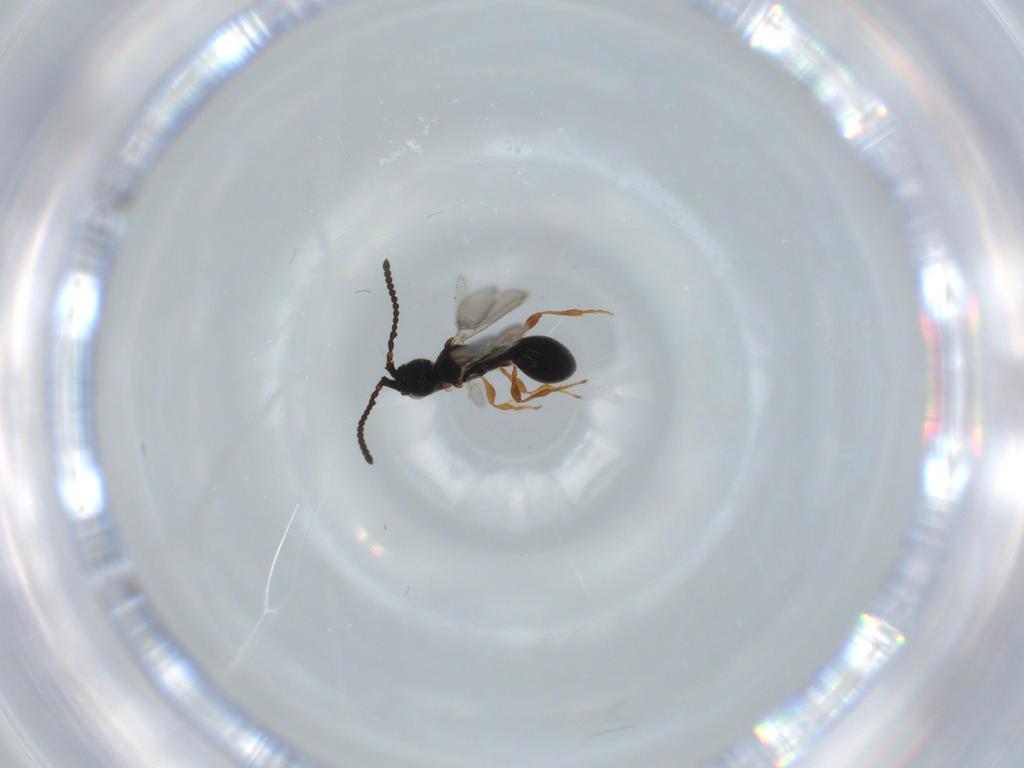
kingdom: Animalia
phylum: Arthropoda
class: Insecta
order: Hymenoptera
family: Diapriidae
